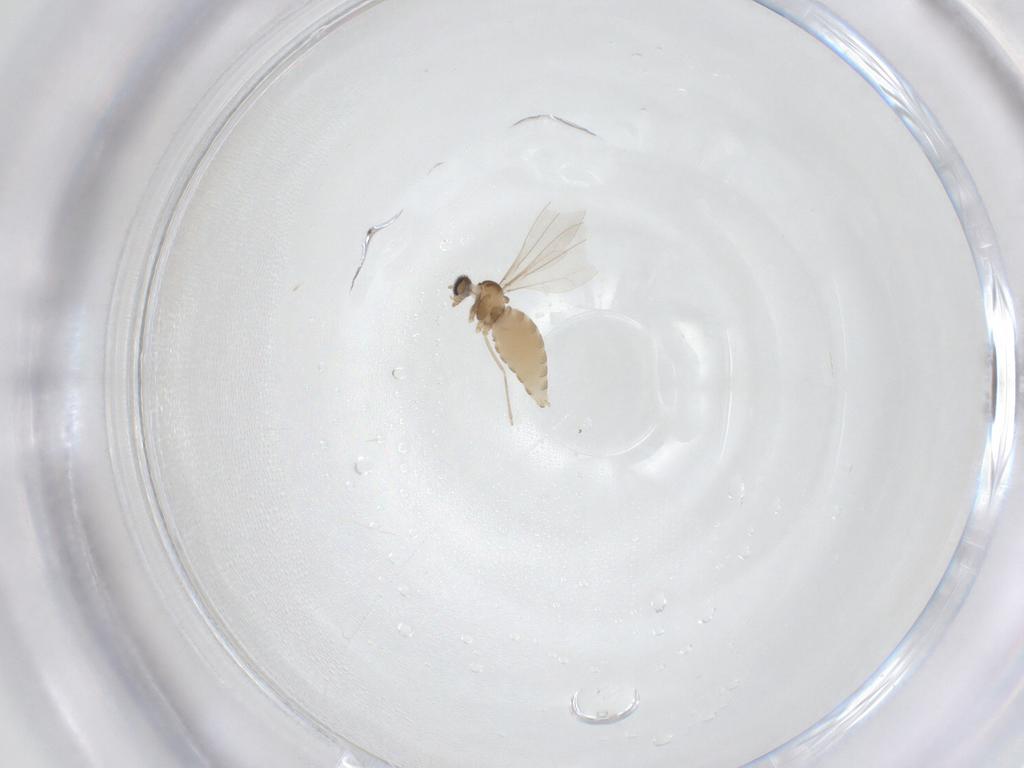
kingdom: Animalia
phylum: Arthropoda
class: Insecta
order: Diptera
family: Cecidomyiidae
